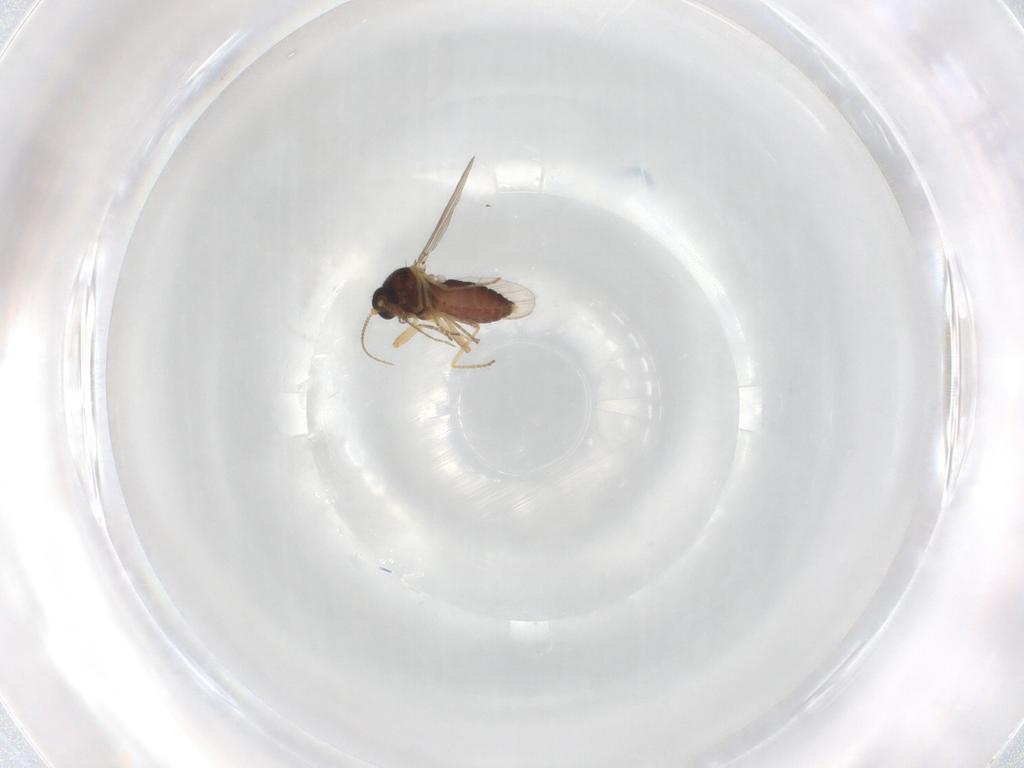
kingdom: Animalia
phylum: Arthropoda
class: Insecta
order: Diptera
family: Ceratopogonidae
